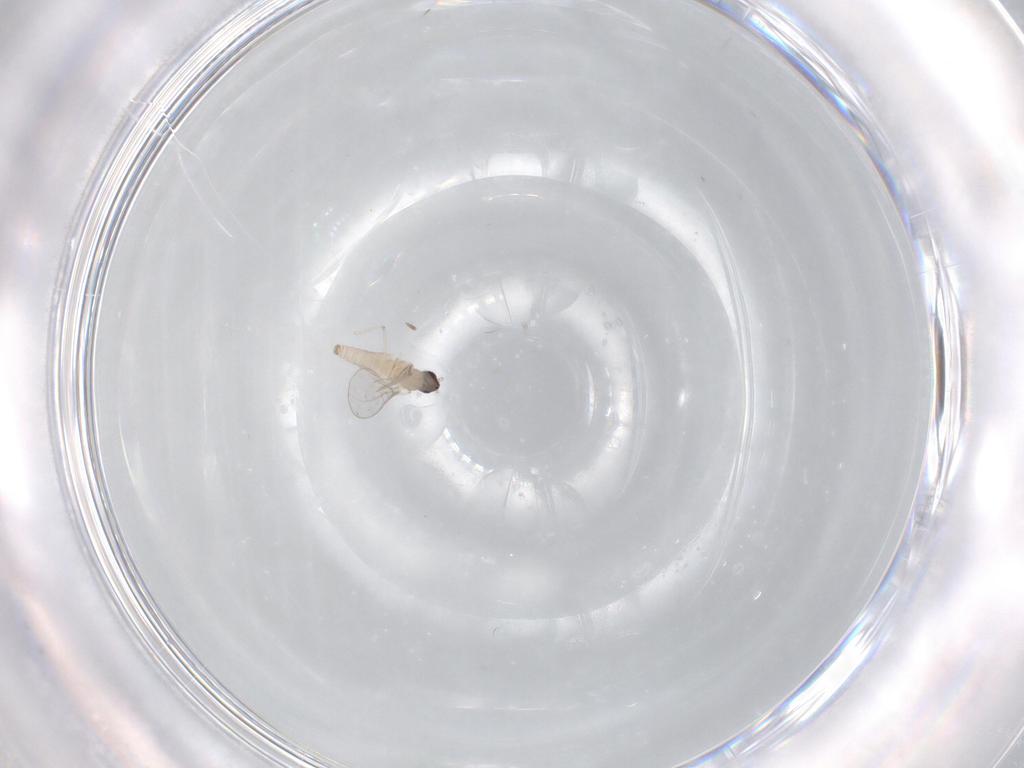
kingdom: Animalia
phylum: Arthropoda
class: Insecta
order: Diptera
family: Cecidomyiidae
